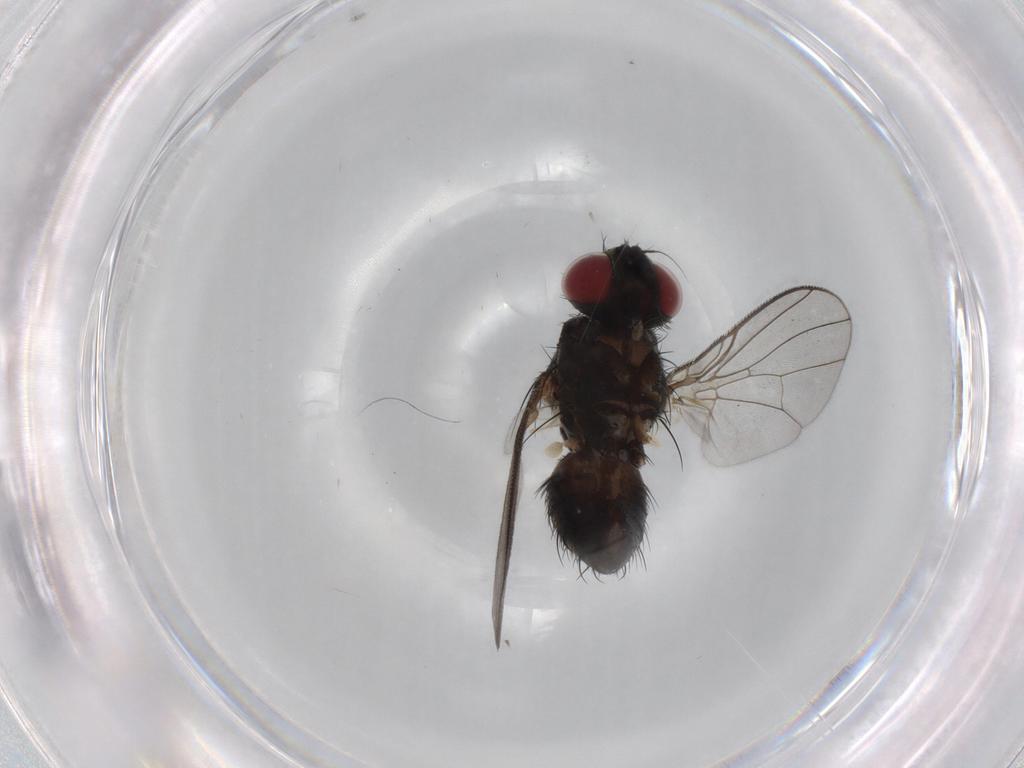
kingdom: Animalia
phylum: Arthropoda
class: Insecta
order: Diptera
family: Muscidae
